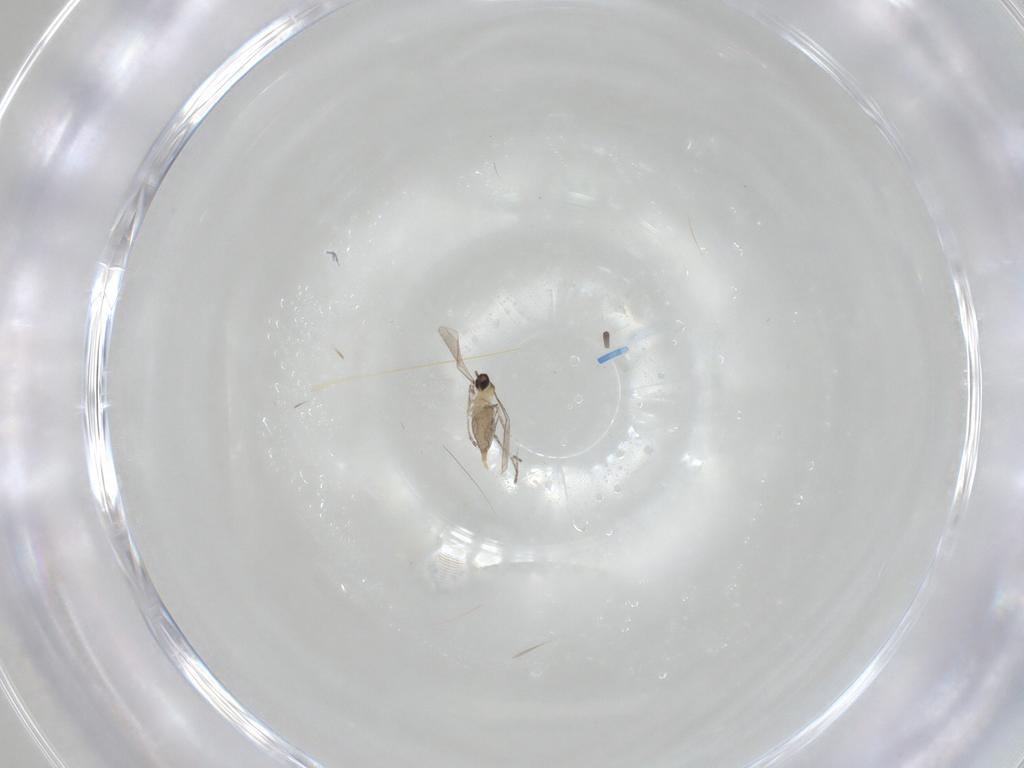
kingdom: Animalia
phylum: Arthropoda
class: Insecta
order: Diptera
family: Cecidomyiidae
